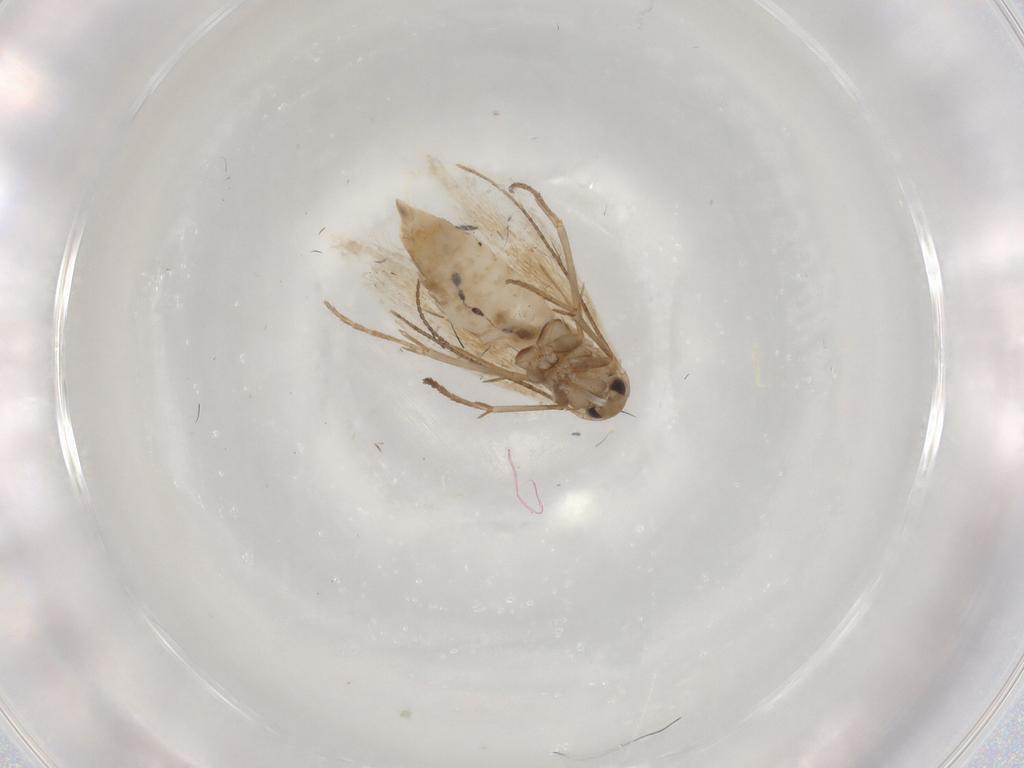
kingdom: Animalia
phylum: Arthropoda
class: Insecta
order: Lepidoptera
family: Bucculatricidae
